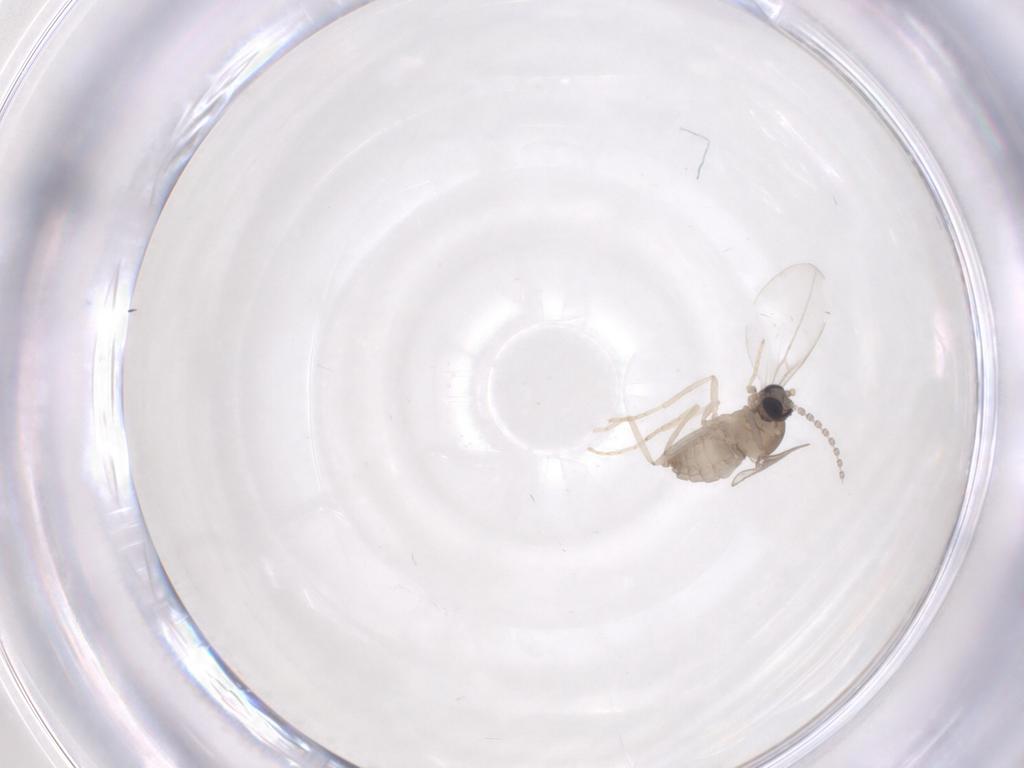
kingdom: Animalia
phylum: Arthropoda
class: Insecta
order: Diptera
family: Cecidomyiidae
